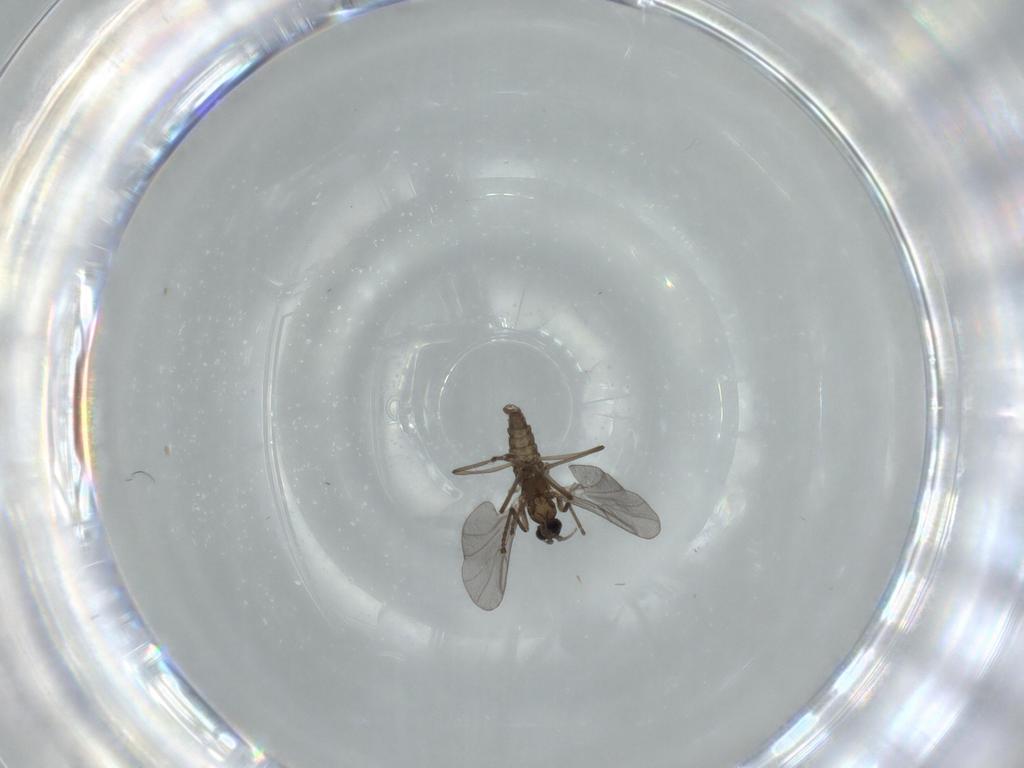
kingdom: Animalia
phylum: Arthropoda
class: Insecta
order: Diptera
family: Cecidomyiidae
